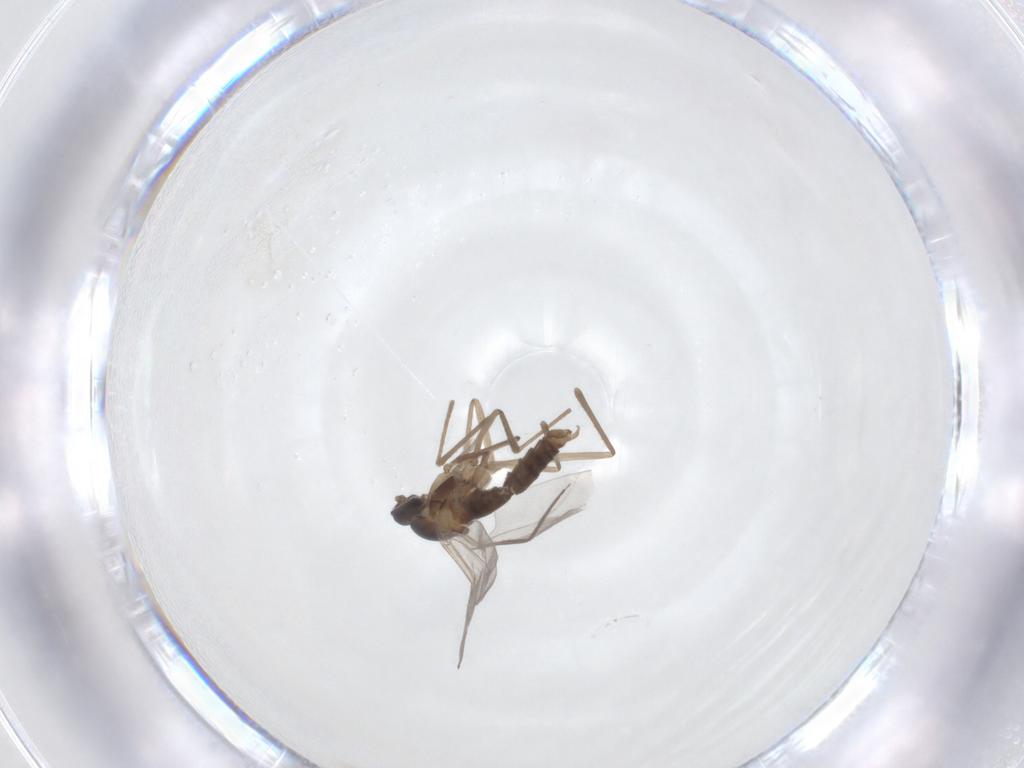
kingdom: Animalia
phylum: Arthropoda
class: Insecta
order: Diptera
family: Cecidomyiidae
